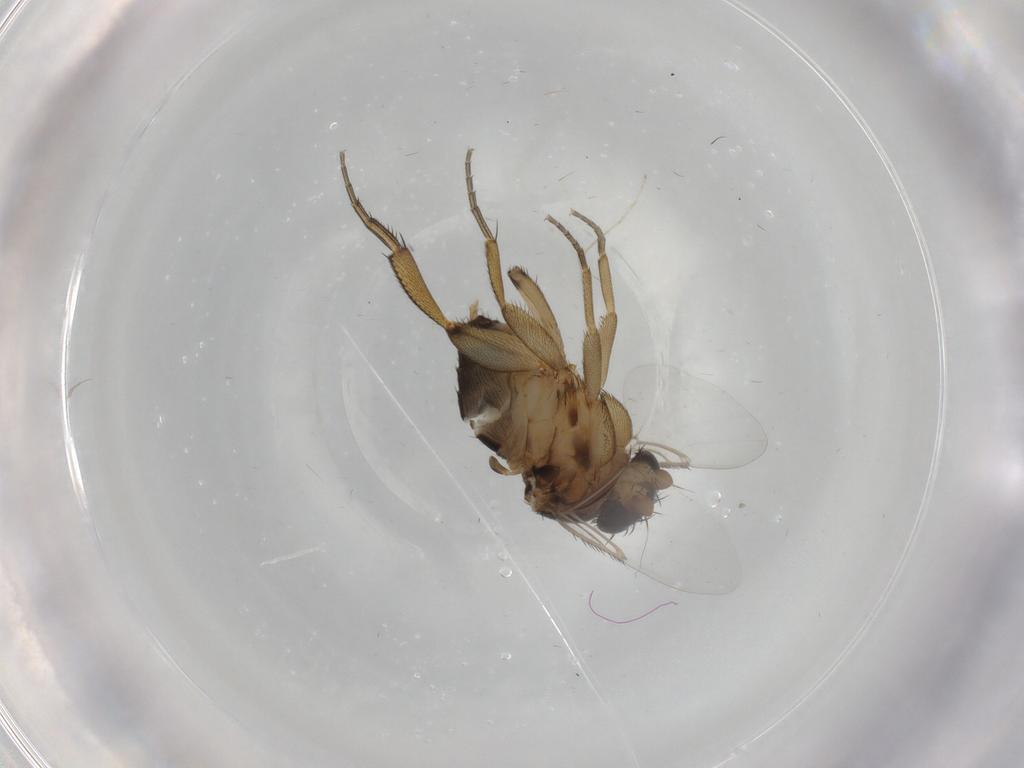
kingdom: Animalia
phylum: Arthropoda
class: Insecta
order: Diptera
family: Phoridae
